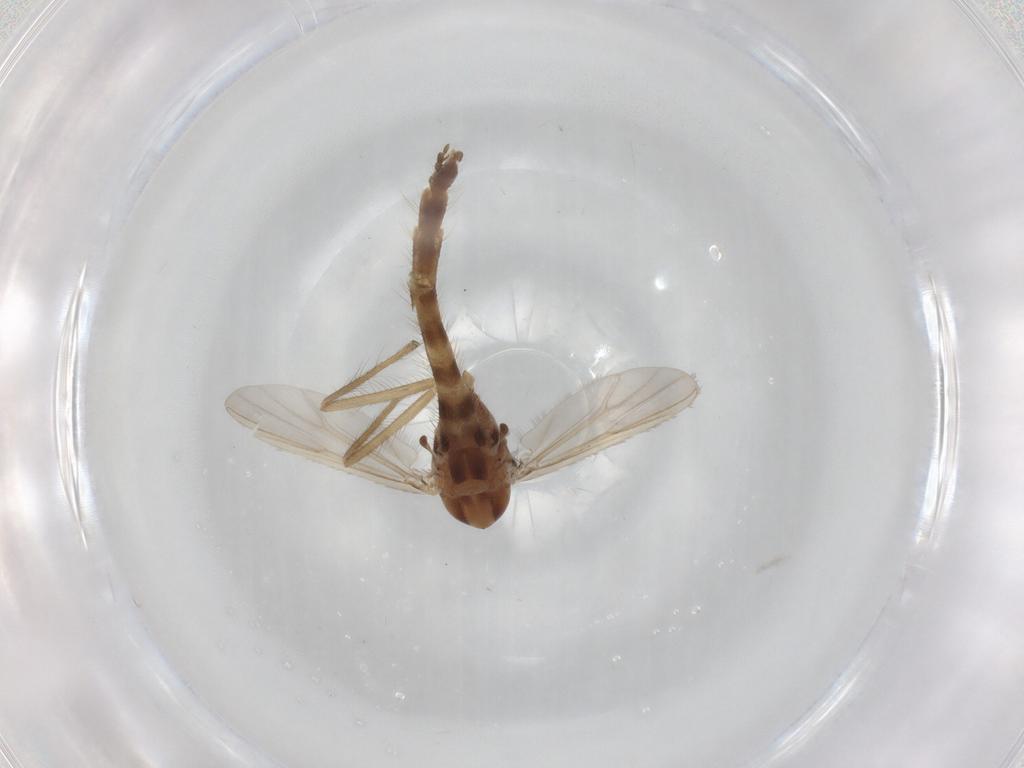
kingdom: Animalia
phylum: Arthropoda
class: Insecta
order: Diptera
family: Chironomidae
